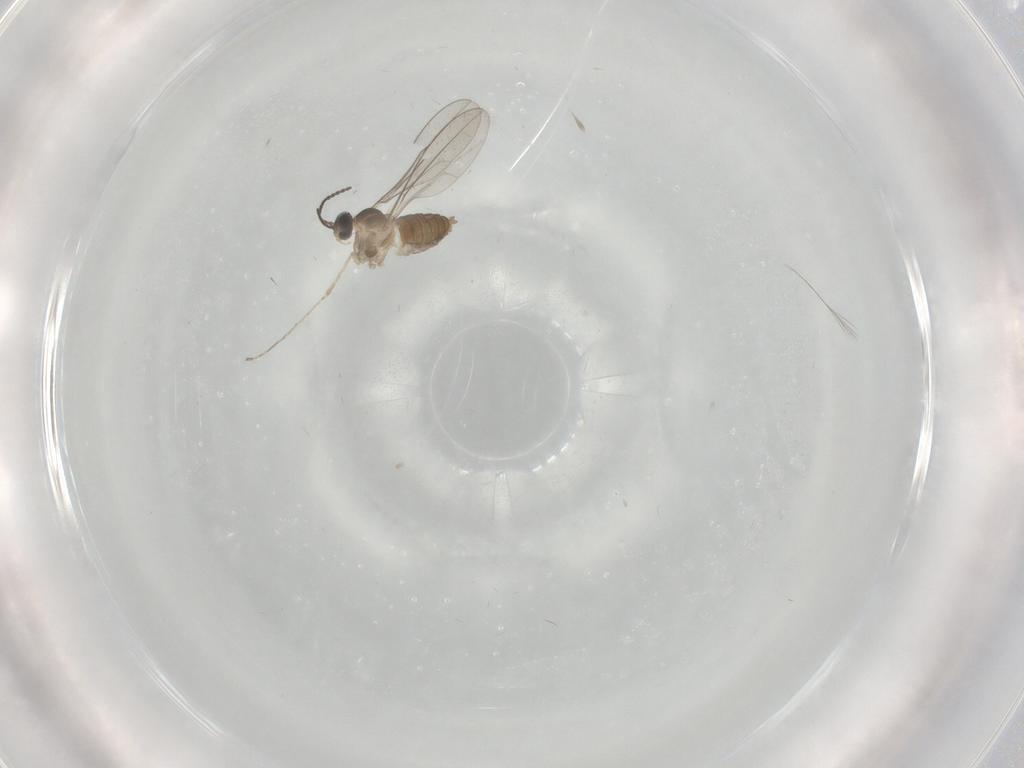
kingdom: Animalia
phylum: Arthropoda
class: Insecta
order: Diptera
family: Cecidomyiidae
